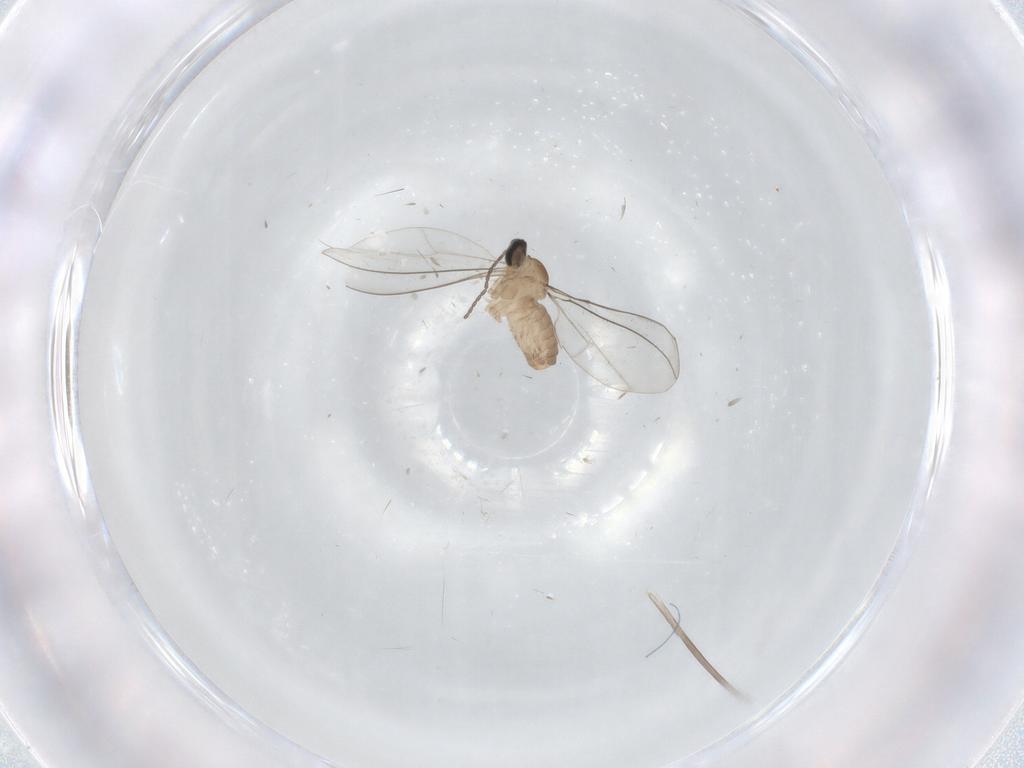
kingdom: Animalia
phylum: Arthropoda
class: Insecta
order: Diptera
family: Cecidomyiidae
